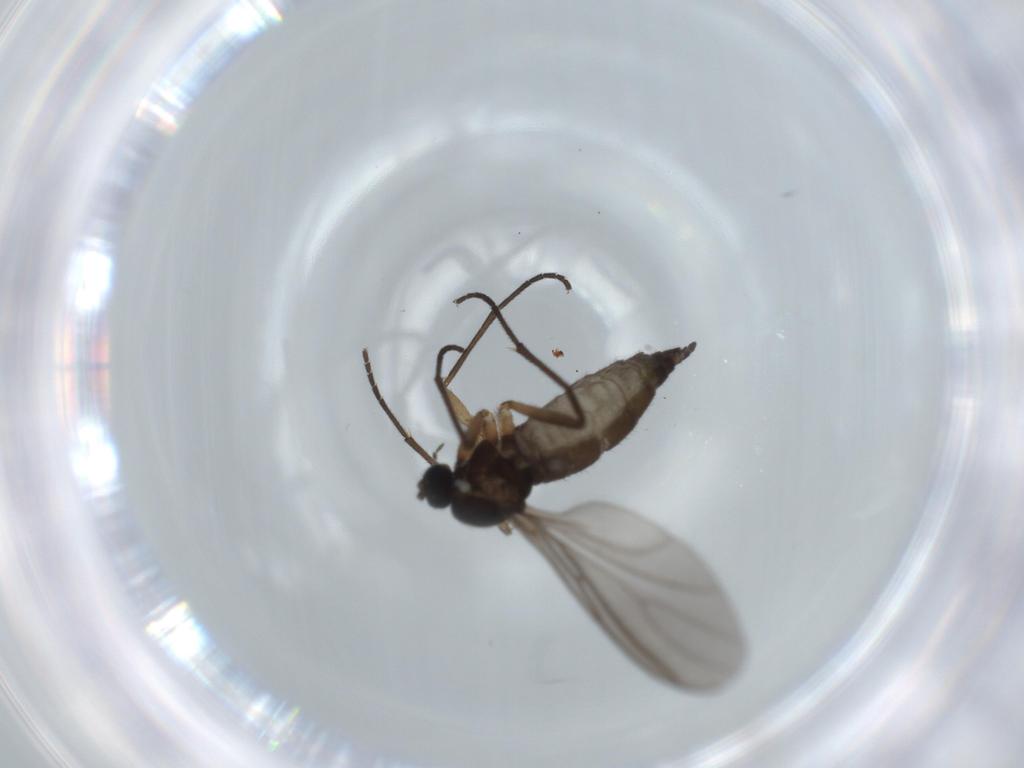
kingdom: Animalia
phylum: Arthropoda
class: Insecta
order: Diptera
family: Sciaridae
